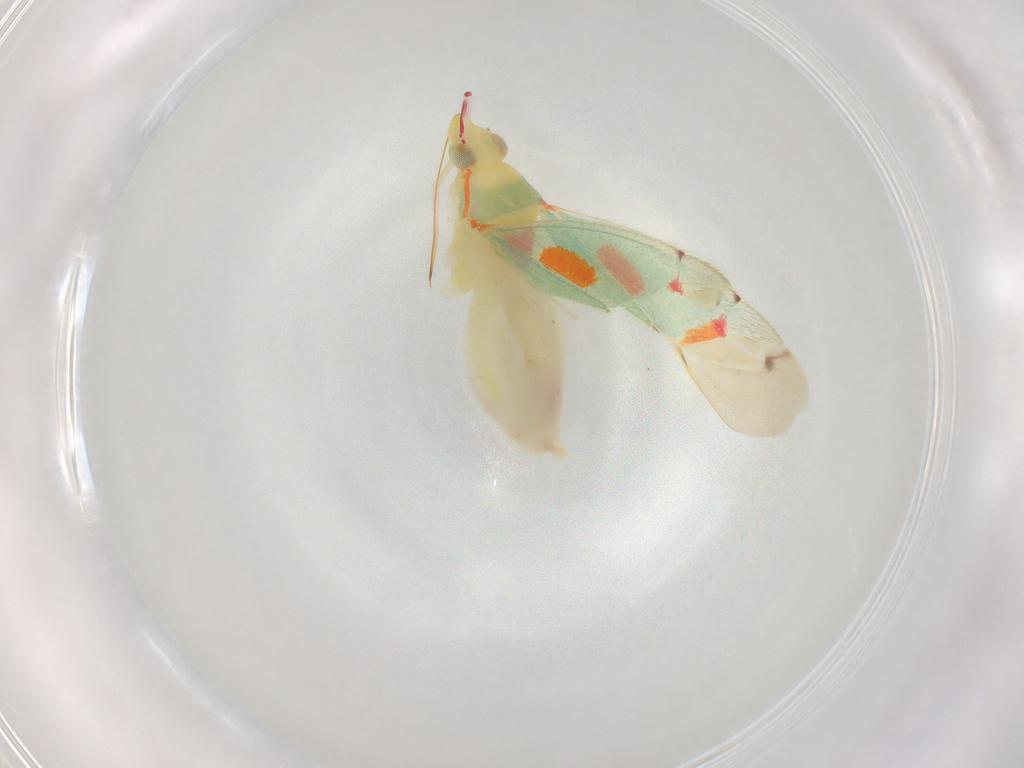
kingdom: Animalia
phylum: Arthropoda
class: Insecta
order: Hemiptera
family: Miridae
